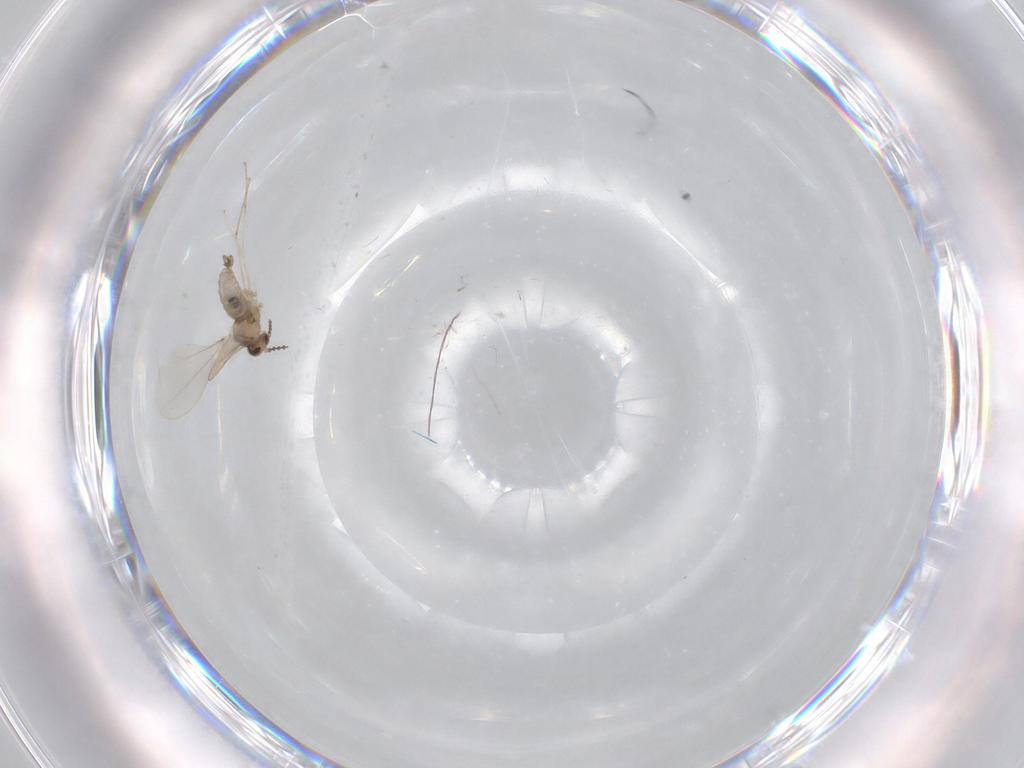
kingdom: Animalia
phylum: Arthropoda
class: Insecta
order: Diptera
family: Cecidomyiidae
